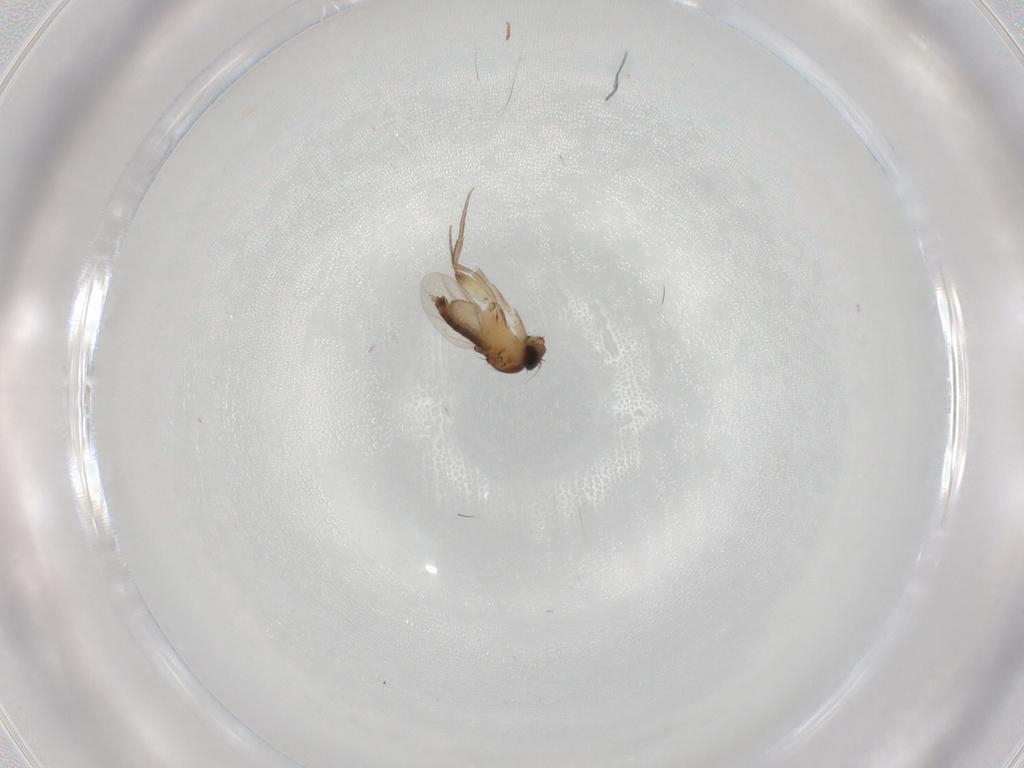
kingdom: Animalia
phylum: Arthropoda
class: Insecta
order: Diptera
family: Phoridae
